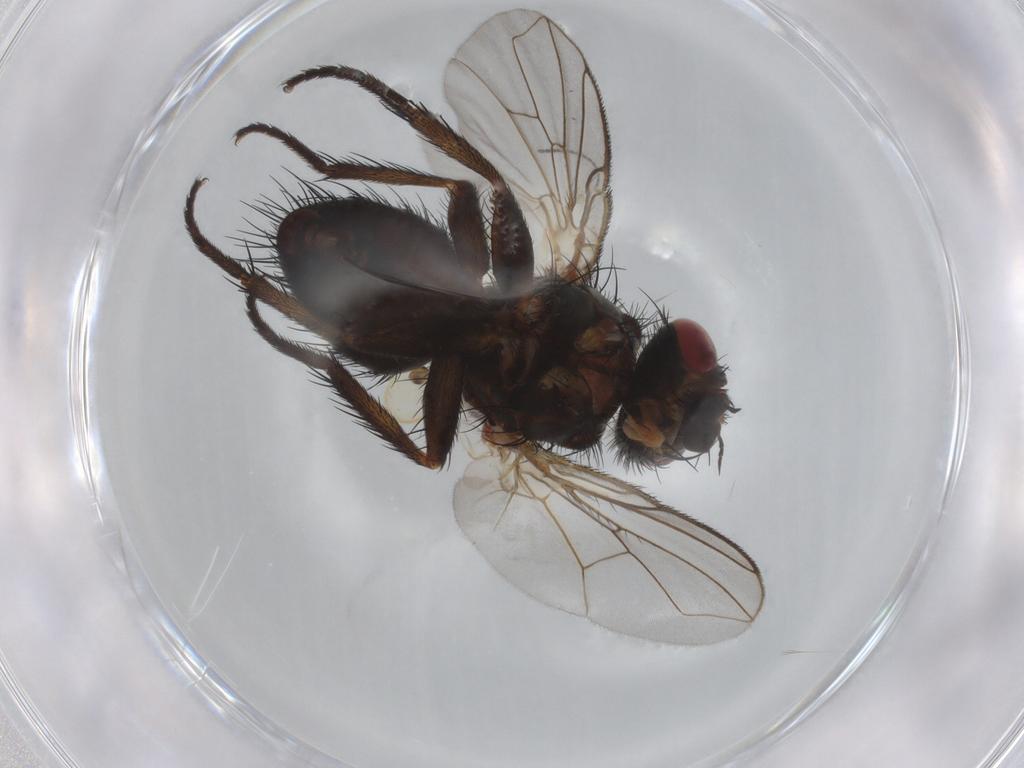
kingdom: Animalia
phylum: Arthropoda
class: Insecta
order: Diptera
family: Tachinidae
